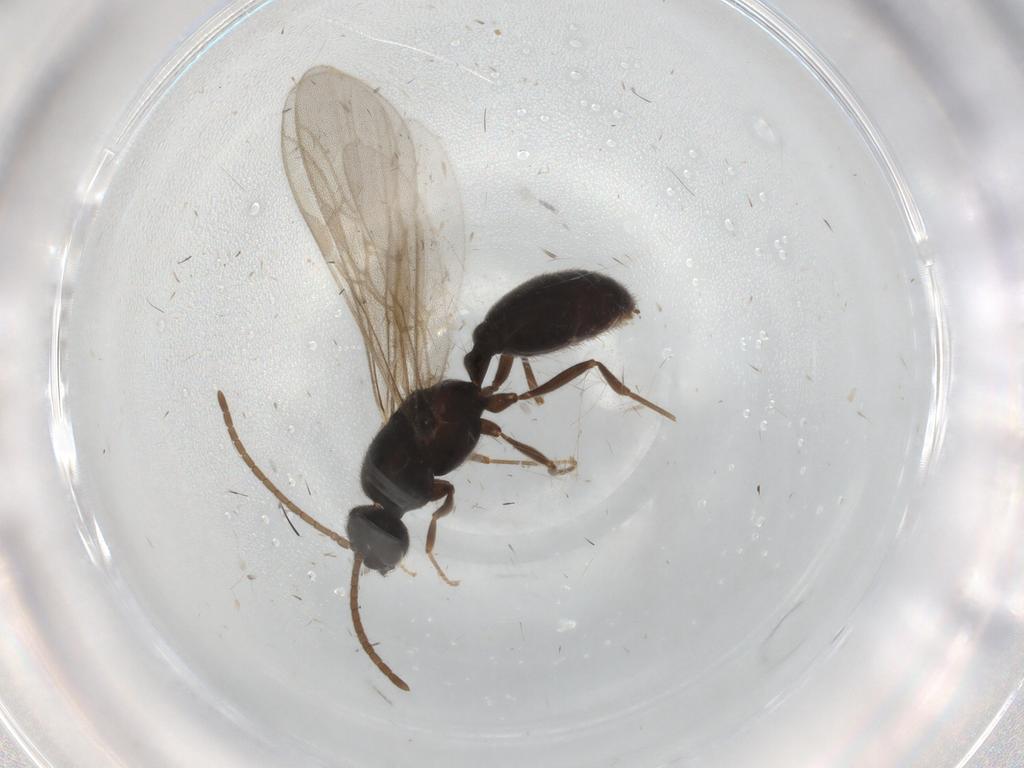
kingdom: Animalia
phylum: Arthropoda
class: Insecta
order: Hymenoptera
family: Formicidae
